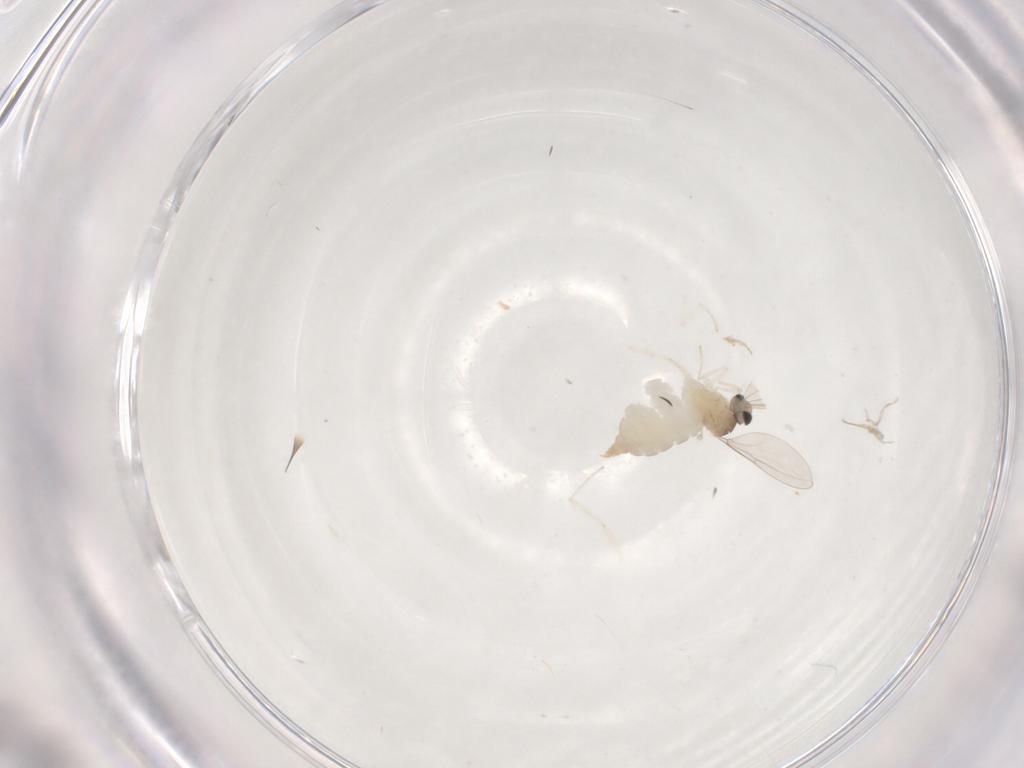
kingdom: Animalia
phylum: Arthropoda
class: Insecta
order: Diptera
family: Cecidomyiidae
